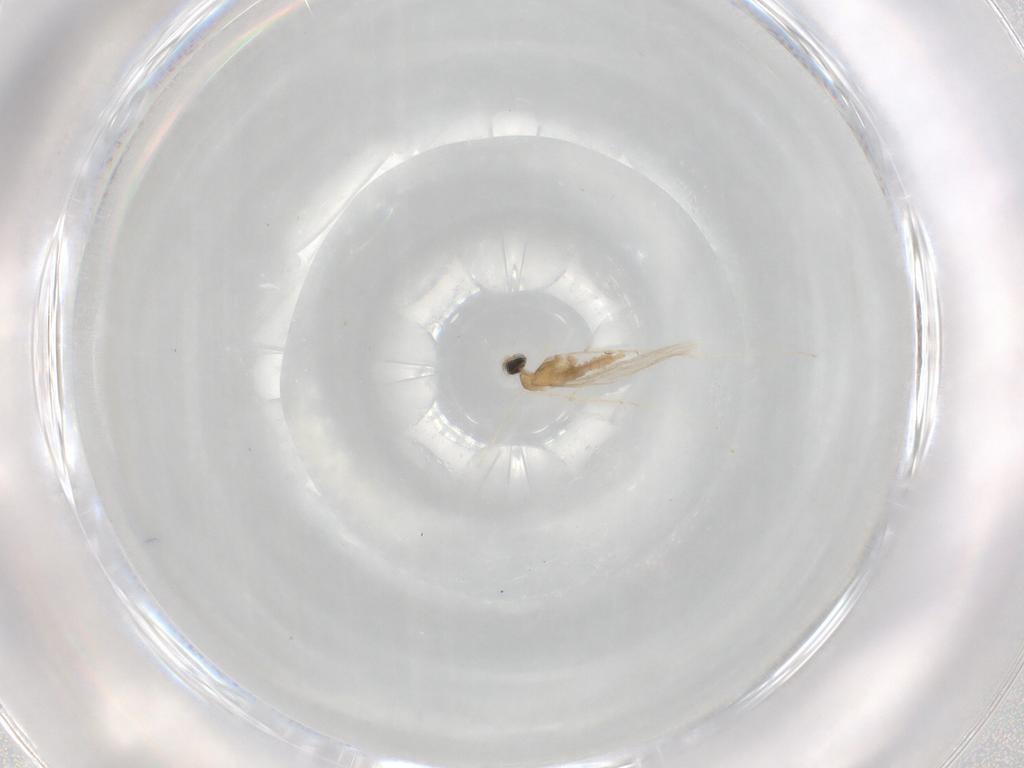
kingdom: Animalia
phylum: Arthropoda
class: Insecta
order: Diptera
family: Cecidomyiidae
